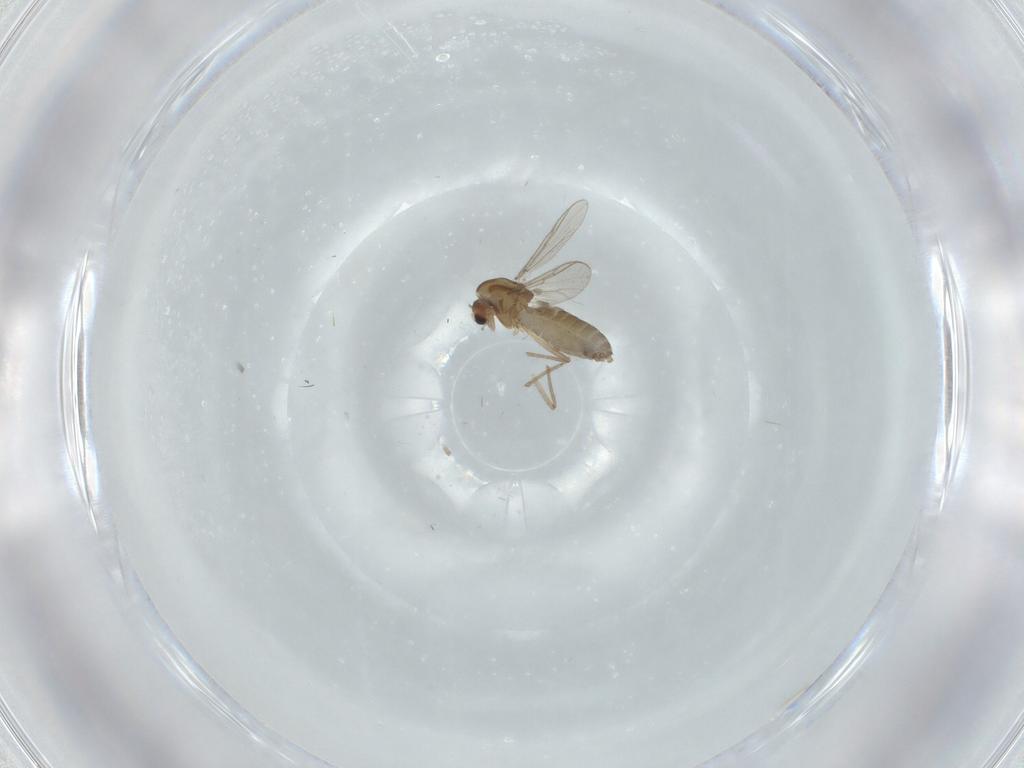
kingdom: Animalia
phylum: Arthropoda
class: Insecta
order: Diptera
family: Chironomidae
